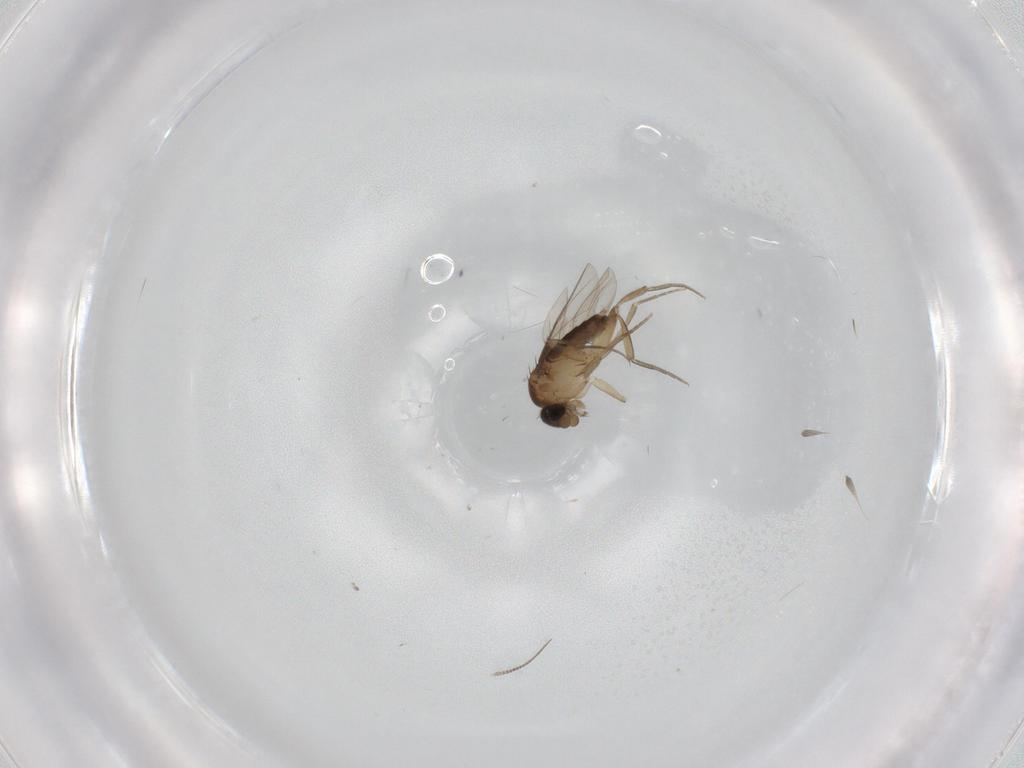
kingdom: Animalia
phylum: Arthropoda
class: Insecta
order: Diptera
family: Phoridae
